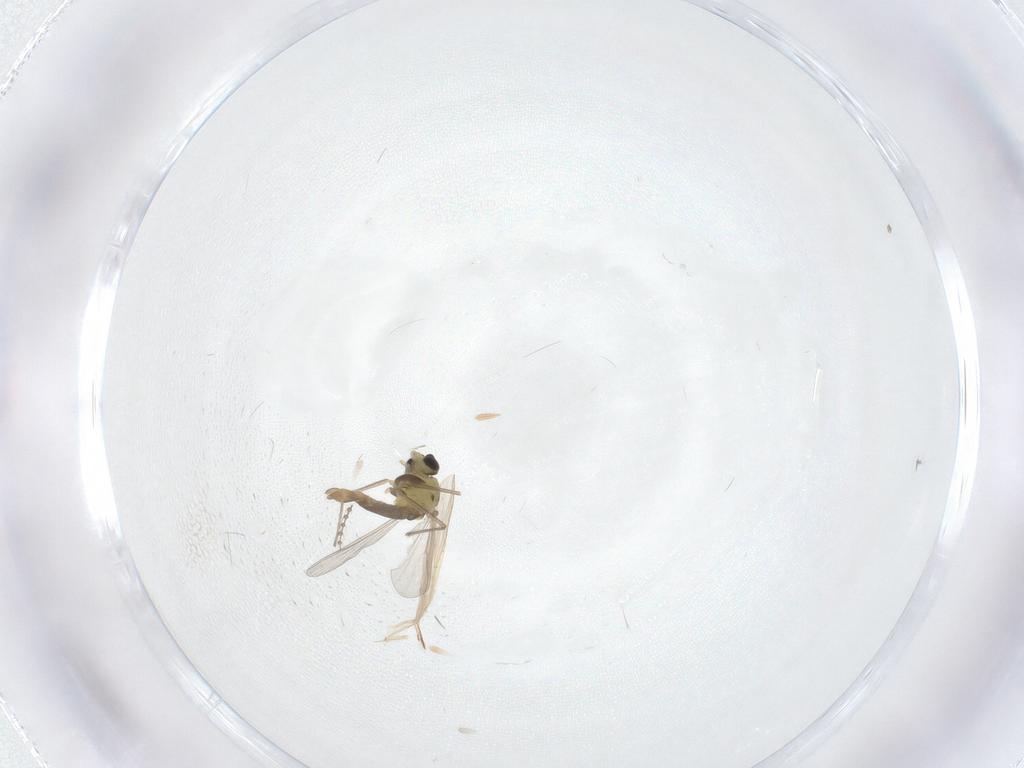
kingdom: Animalia
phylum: Arthropoda
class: Insecta
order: Diptera
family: Chironomidae
